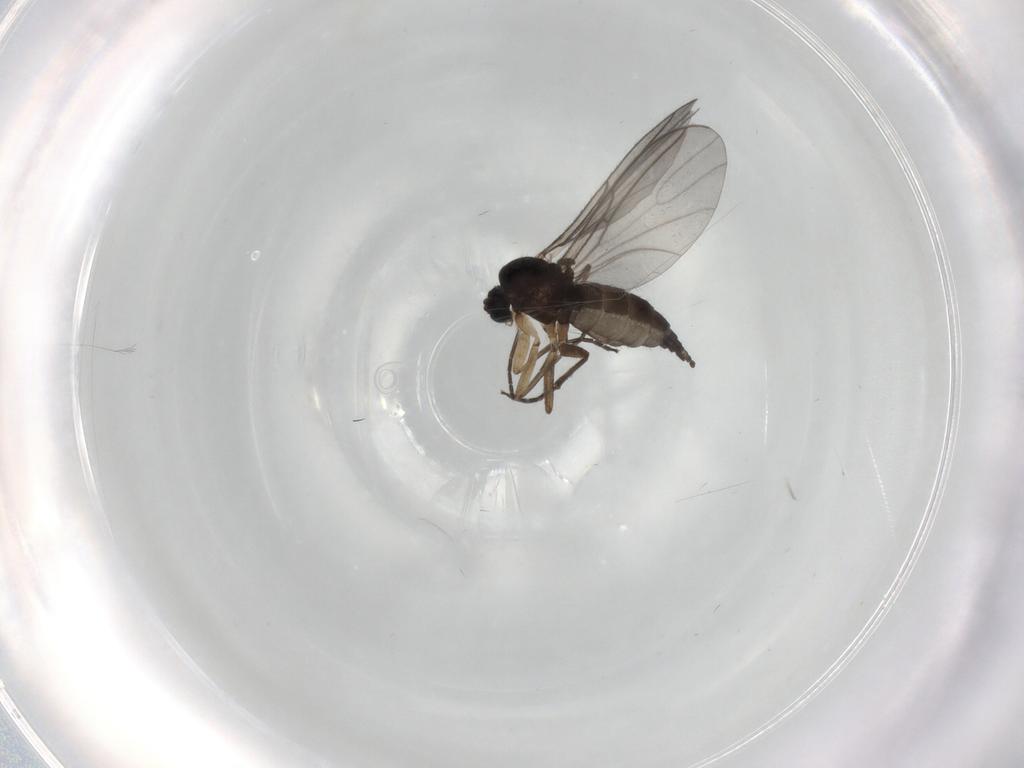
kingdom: Animalia
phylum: Arthropoda
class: Insecta
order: Diptera
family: Sciaridae
